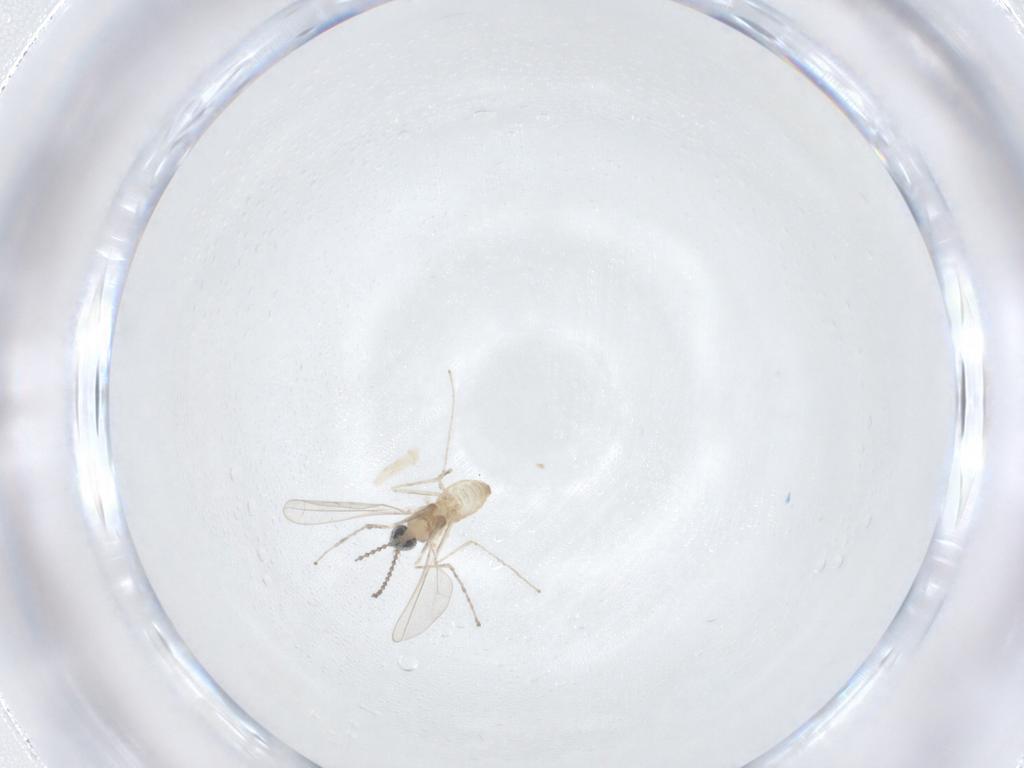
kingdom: Animalia
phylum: Arthropoda
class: Insecta
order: Diptera
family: Cecidomyiidae
